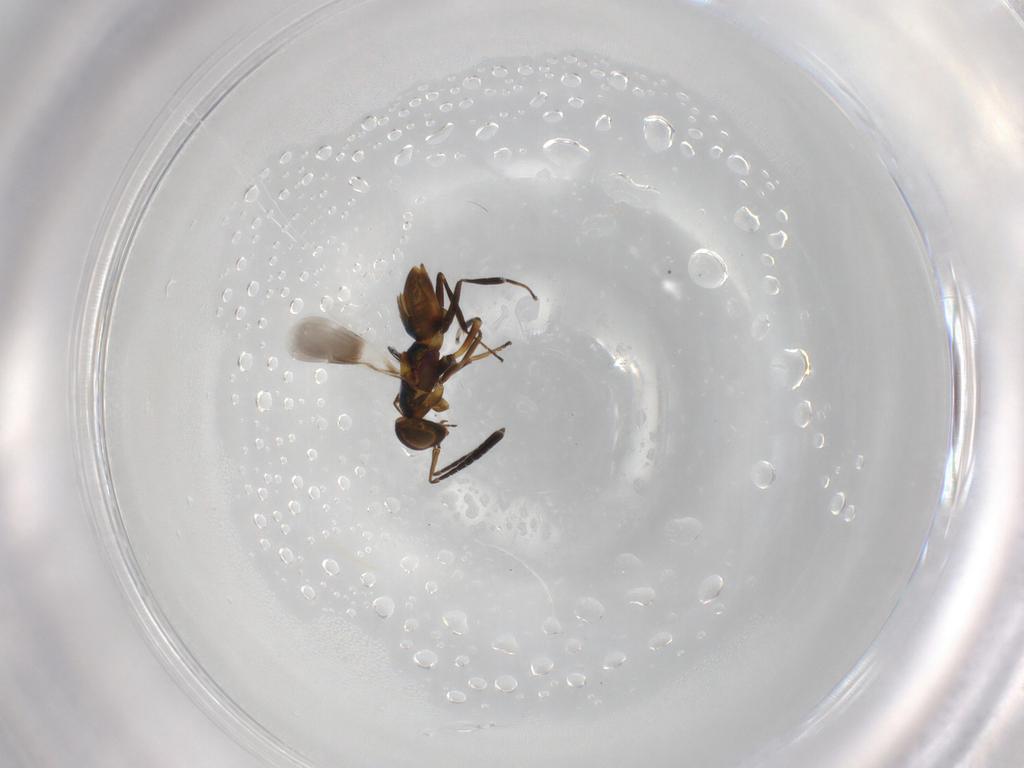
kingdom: Animalia
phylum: Arthropoda
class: Insecta
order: Hymenoptera
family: Encyrtidae
